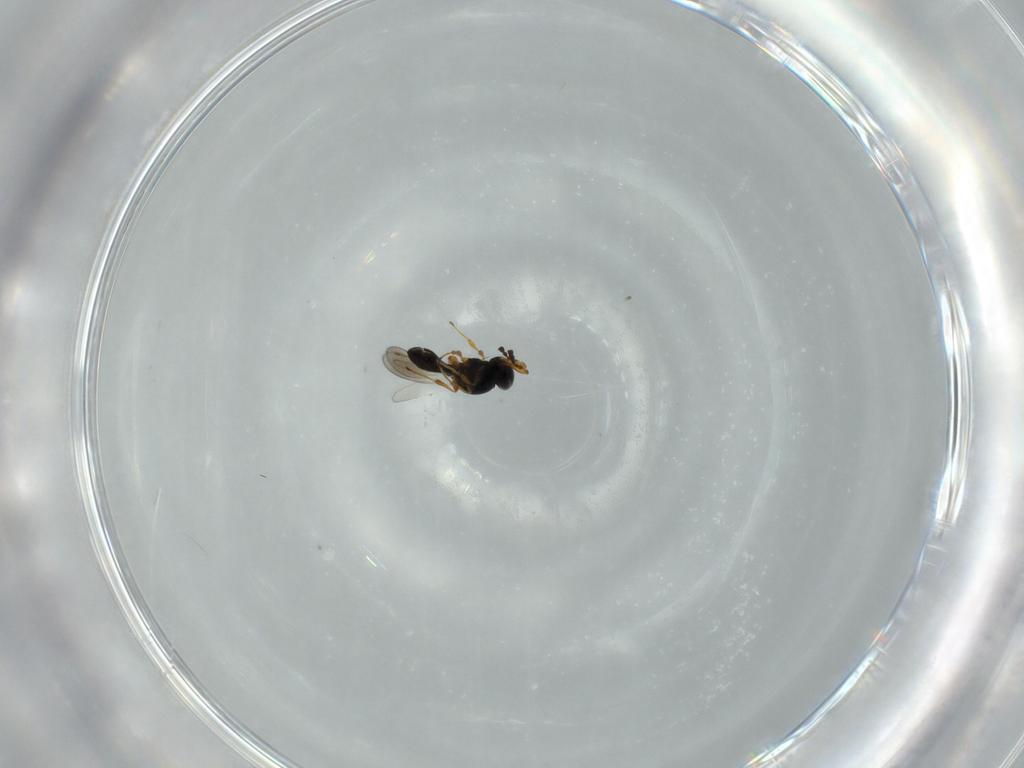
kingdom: Animalia
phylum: Arthropoda
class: Insecta
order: Hymenoptera
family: Platygastridae
